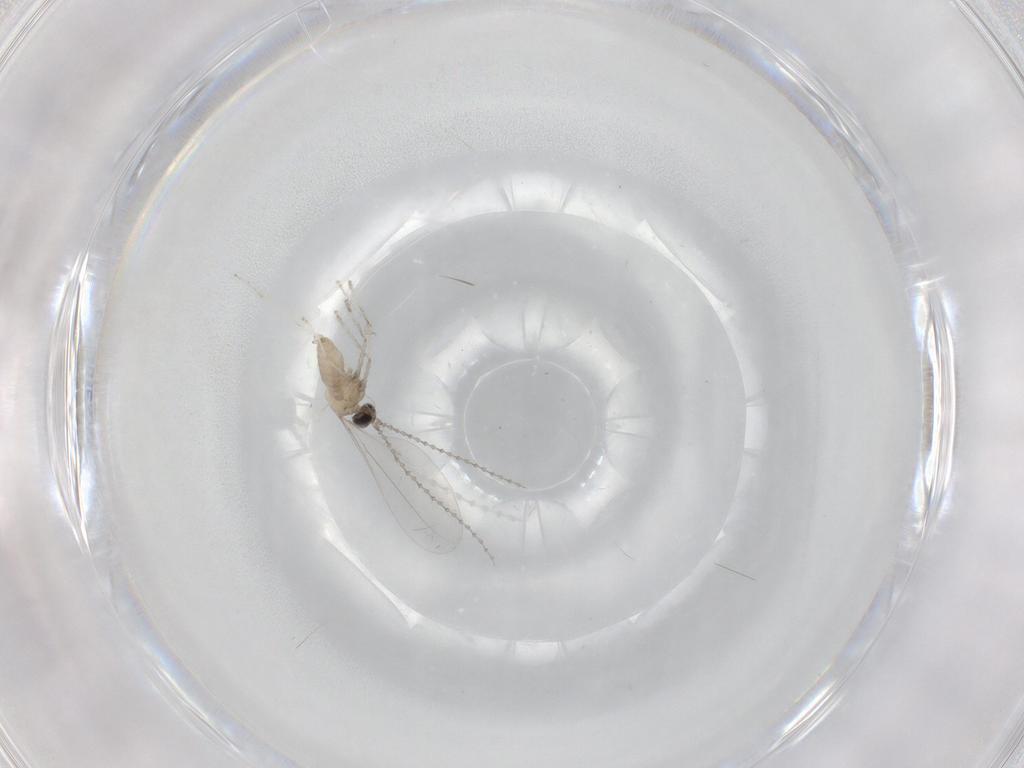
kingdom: Animalia
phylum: Arthropoda
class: Insecta
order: Diptera
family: Cecidomyiidae
